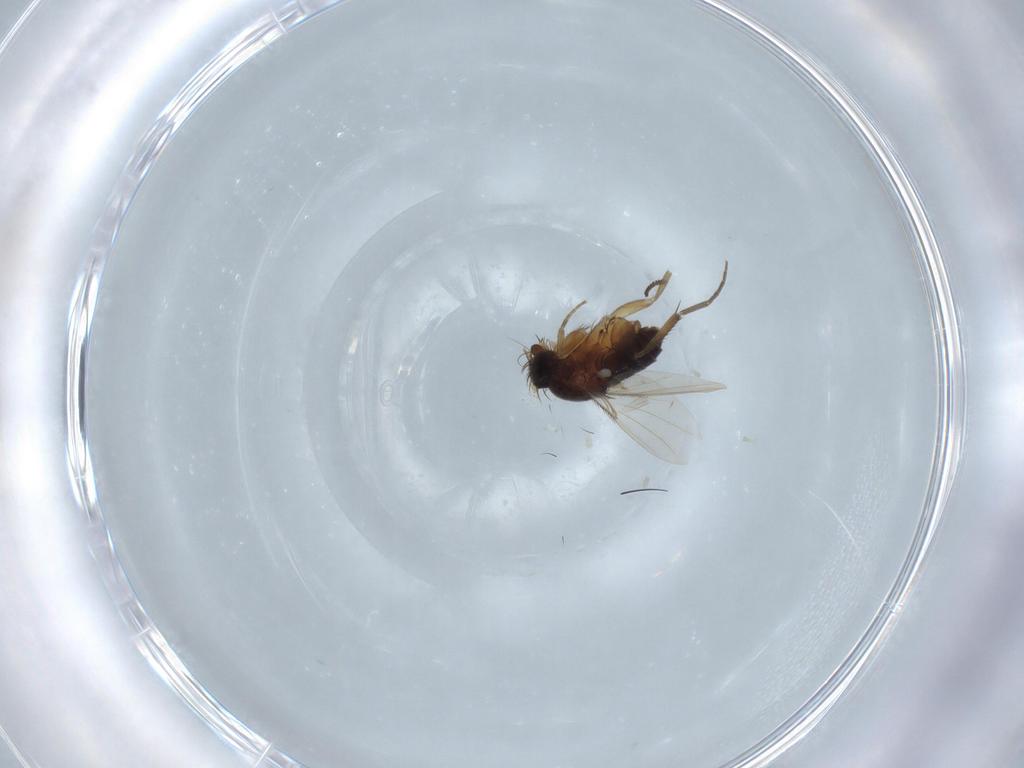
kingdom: Animalia
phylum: Arthropoda
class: Insecta
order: Diptera
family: Phoridae
